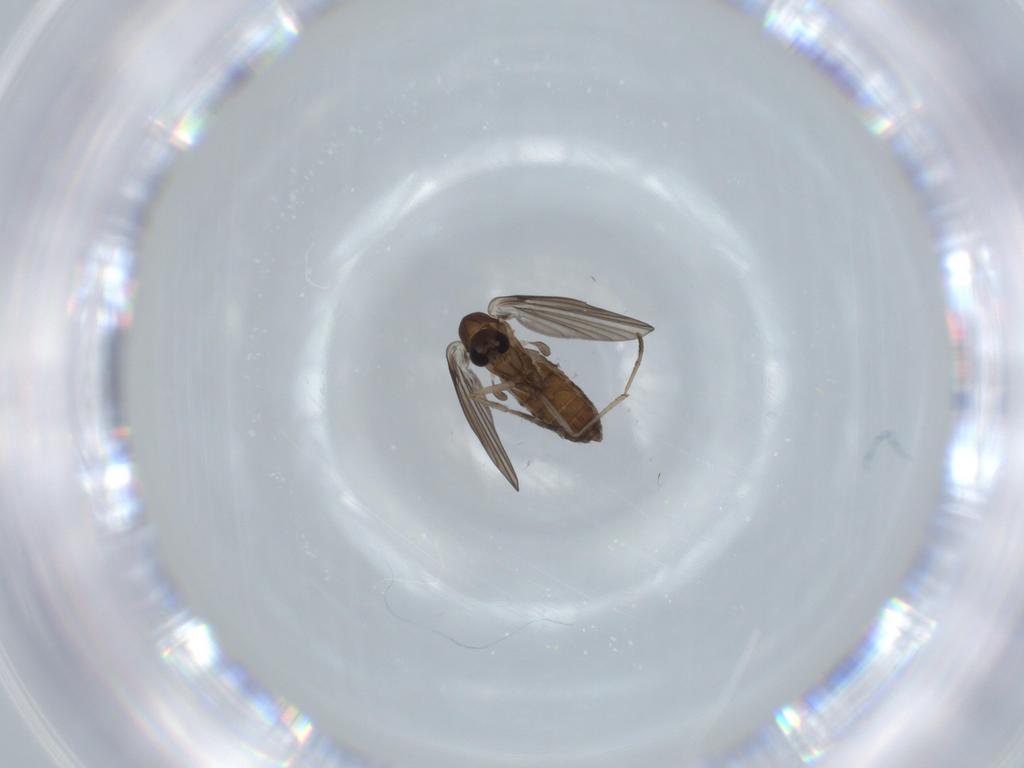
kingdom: Animalia
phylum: Arthropoda
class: Insecta
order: Diptera
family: Psychodidae
